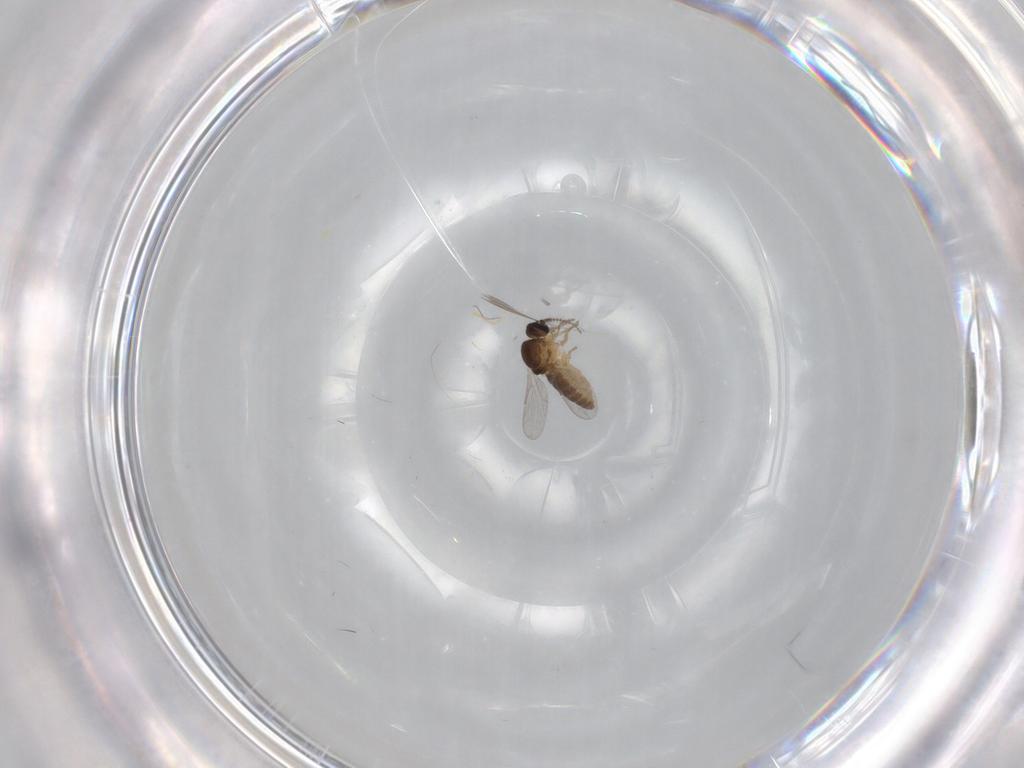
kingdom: Animalia
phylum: Arthropoda
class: Insecta
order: Diptera
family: Ceratopogonidae
